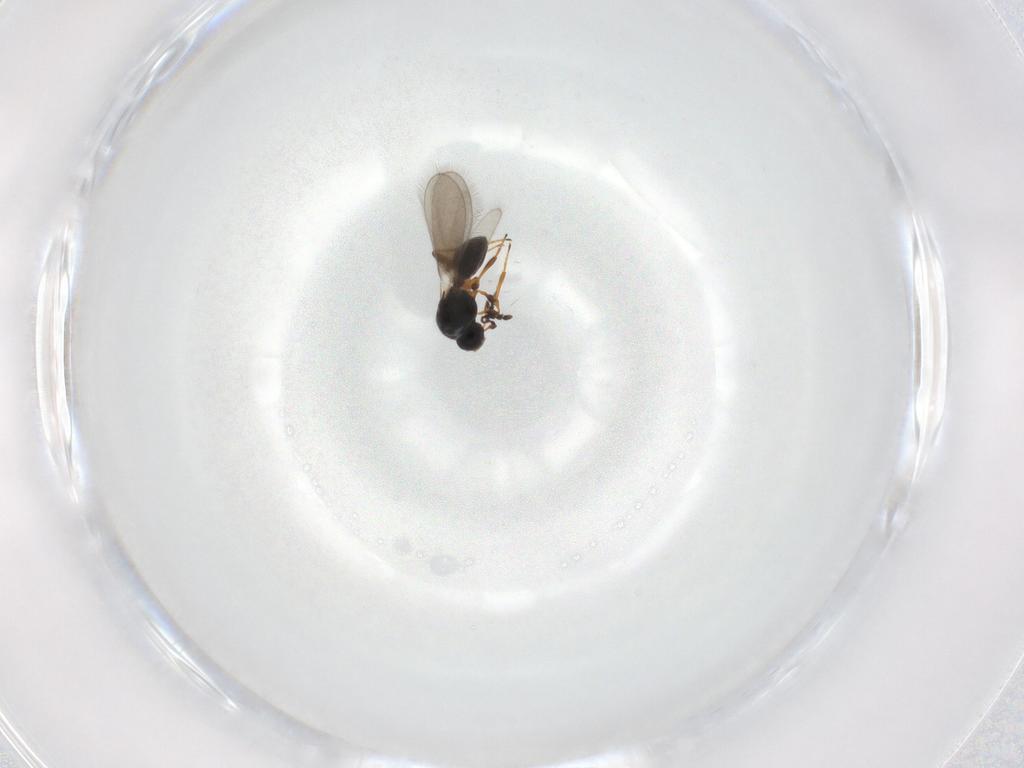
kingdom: Animalia
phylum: Arthropoda
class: Insecta
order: Hymenoptera
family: Platygastridae
